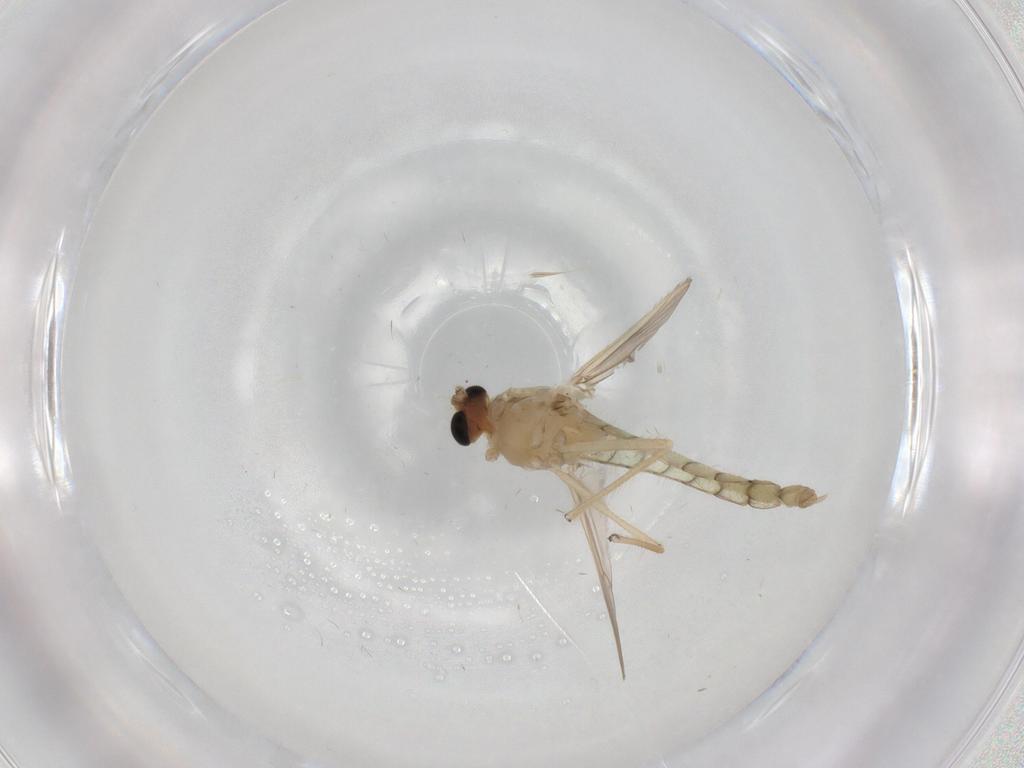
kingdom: Animalia
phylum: Arthropoda
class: Insecta
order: Diptera
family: Chironomidae
